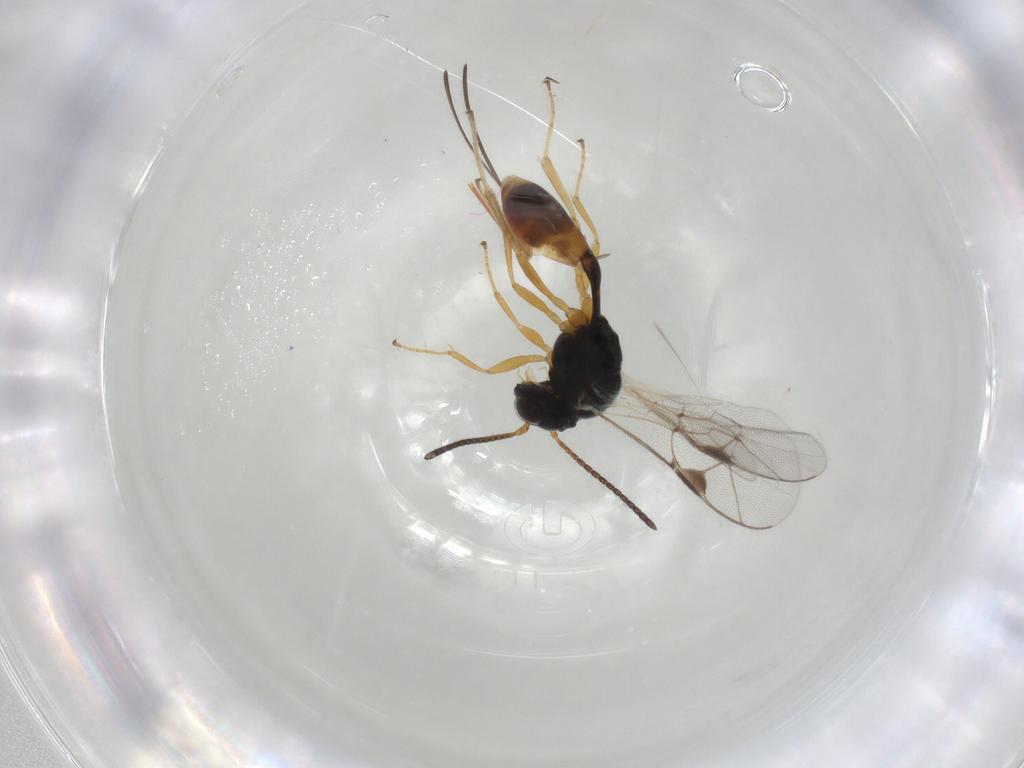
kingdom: Animalia
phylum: Arthropoda
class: Insecta
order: Hymenoptera
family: Ichneumonidae
